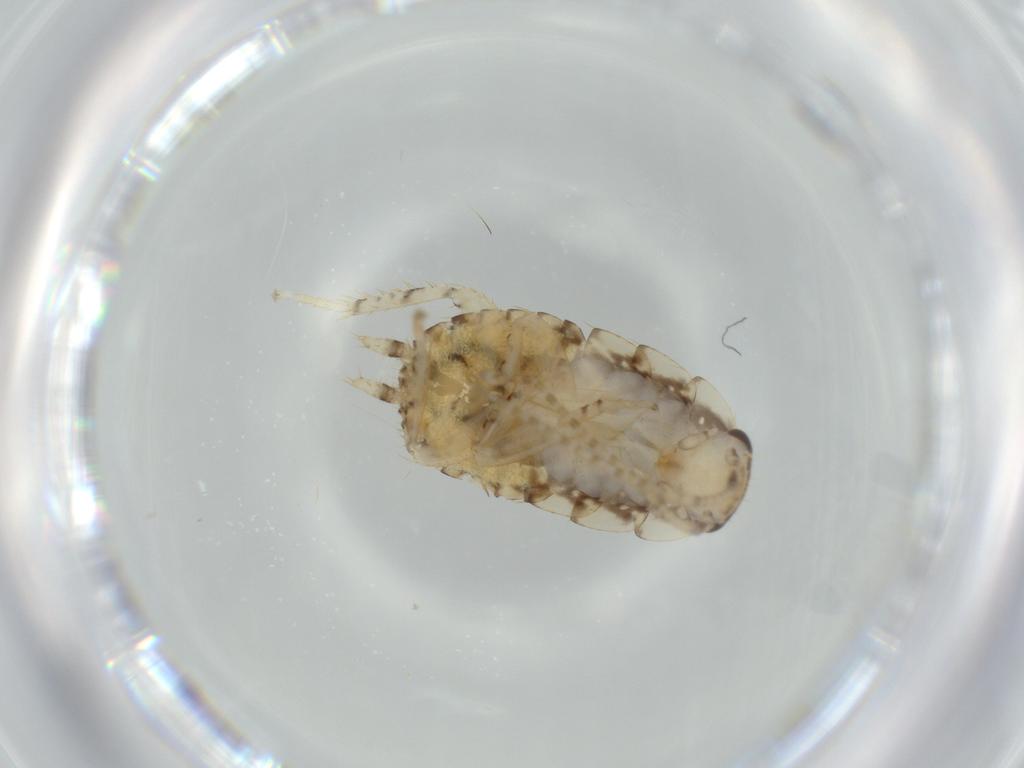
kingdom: Animalia
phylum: Arthropoda
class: Insecta
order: Blattodea
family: Ectobiidae
